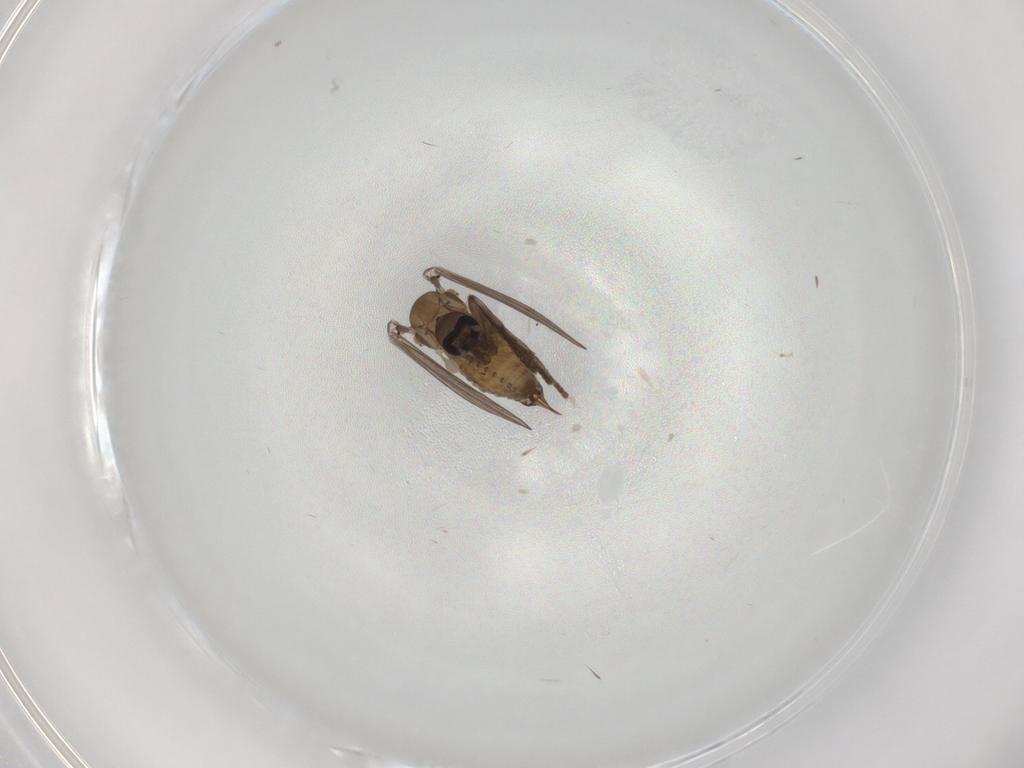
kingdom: Animalia
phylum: Arthropoda
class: Insecta
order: Diptera
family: Psychodidae
